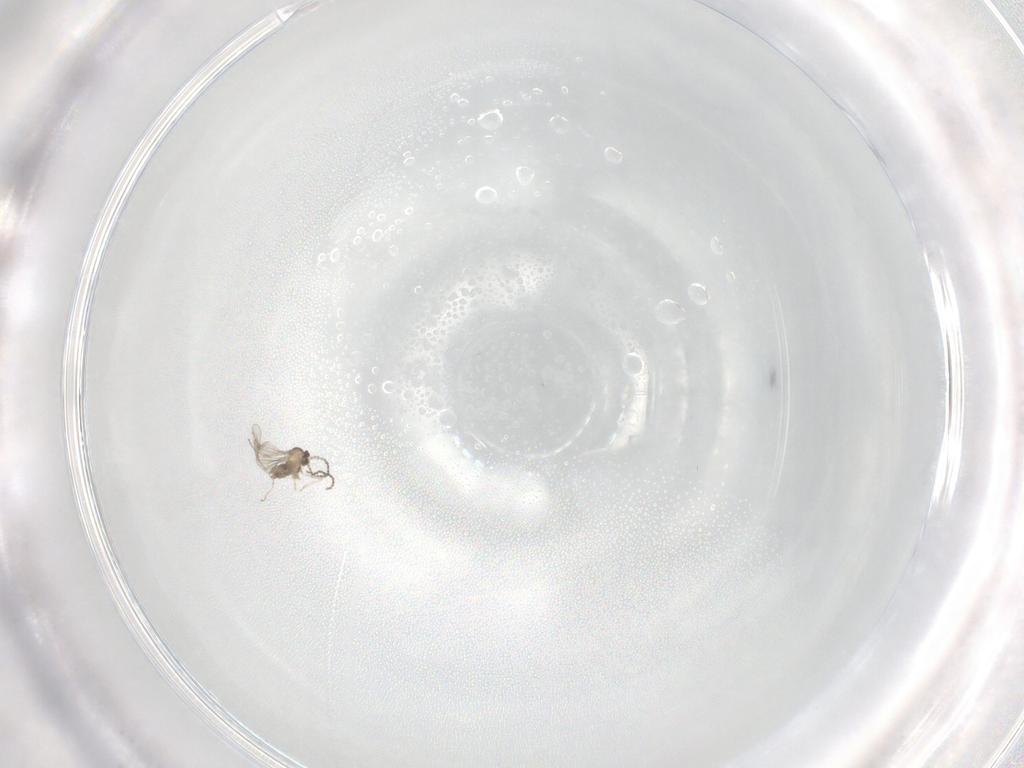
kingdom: Animalia
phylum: Arthropoda
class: Insecta
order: Diptera
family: Cecidomyiidae
